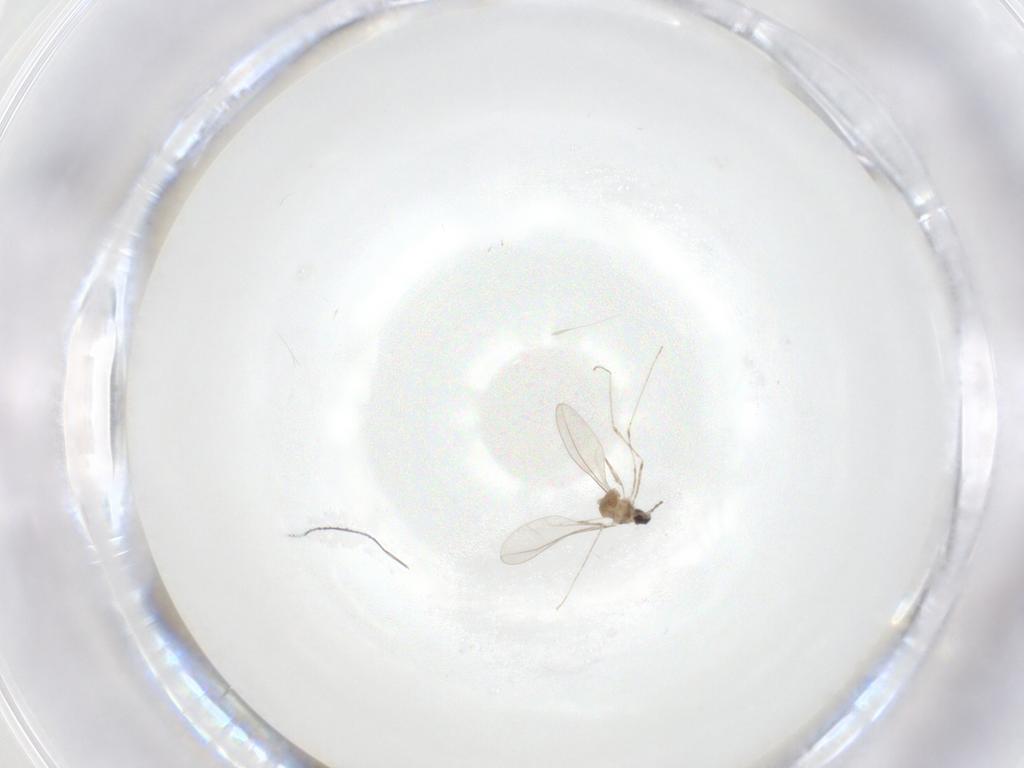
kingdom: Animalia
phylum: Arthropoda
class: Insecta
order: Diptera
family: Cecidomyiidae
